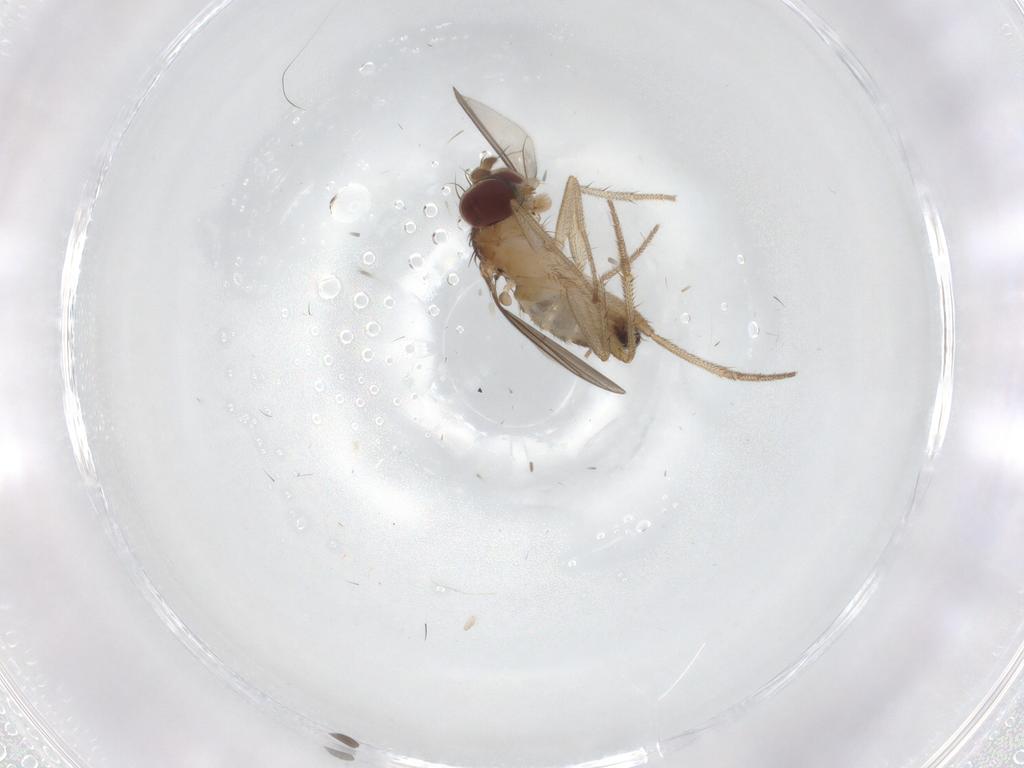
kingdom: Animalia
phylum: Arthropoda
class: Insecta
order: Diptera
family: Dolichopodidae
